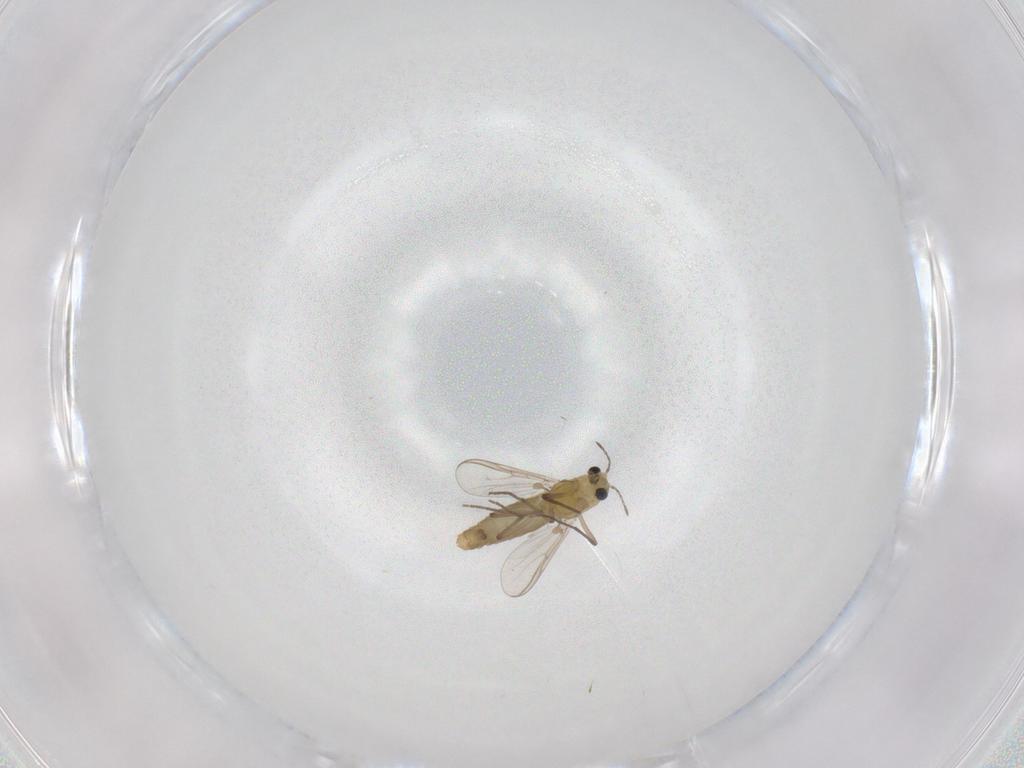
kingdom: Animalia
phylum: Arthropoda
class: Insecta
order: Diptera
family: Chironomidae
